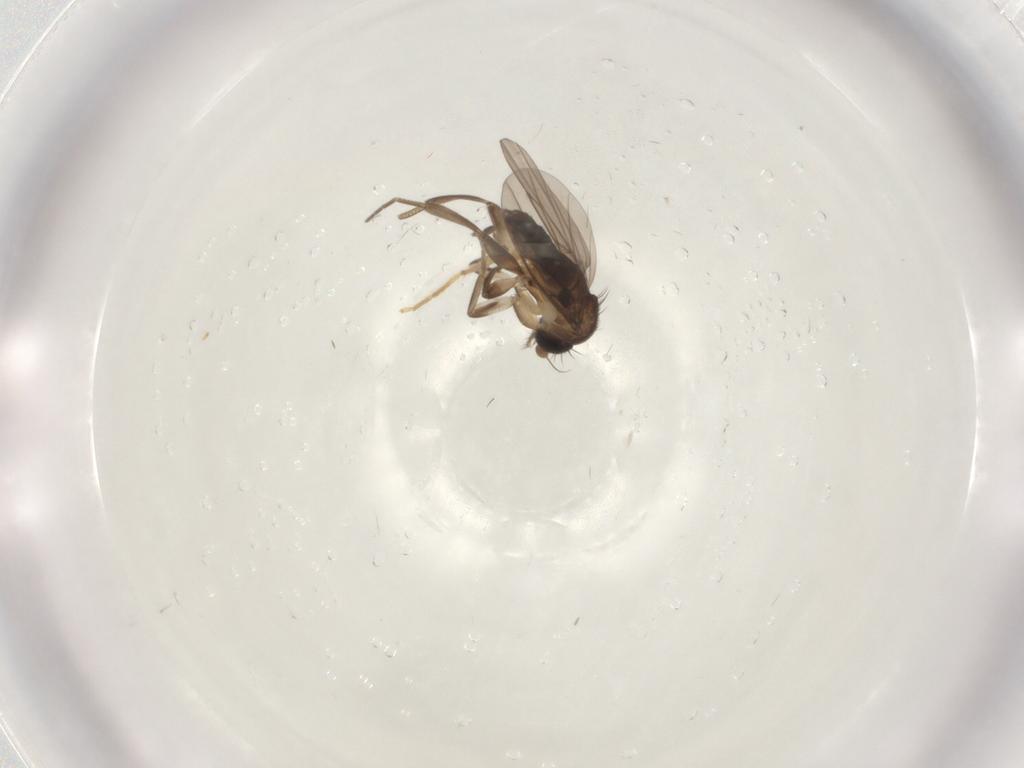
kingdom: Animalia
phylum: Arthropoda
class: Insecta
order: Diptera
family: Chironomidae
